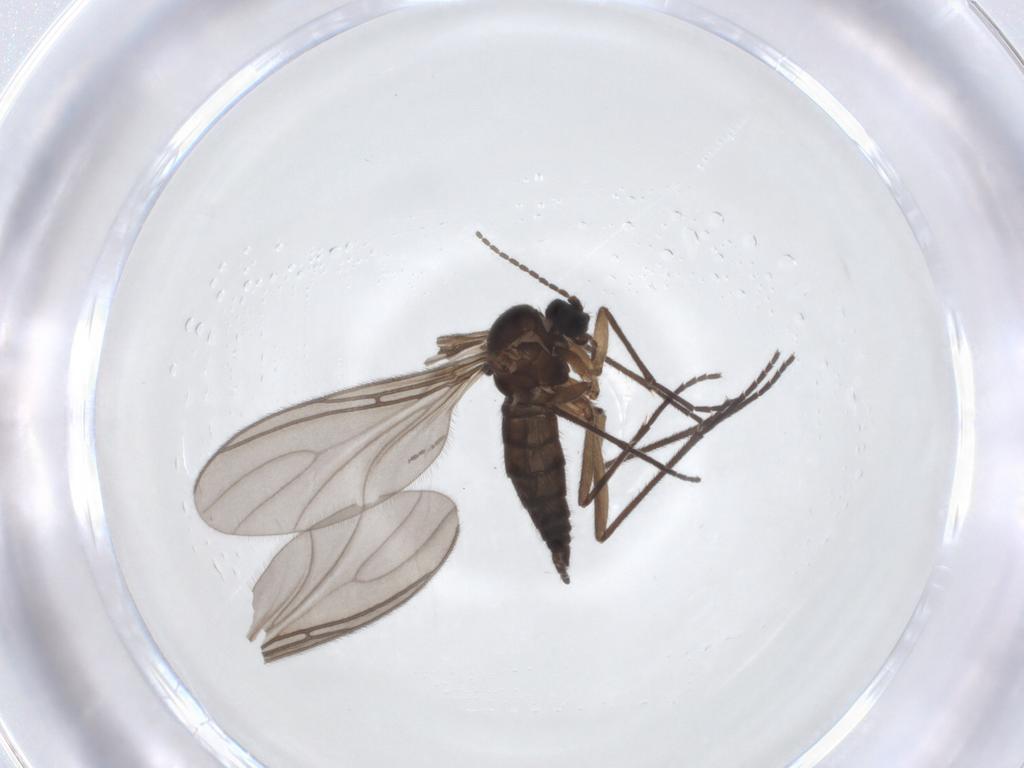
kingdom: Animalia
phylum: Arthropoda
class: Insecta
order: Diptera
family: Sciaridae
